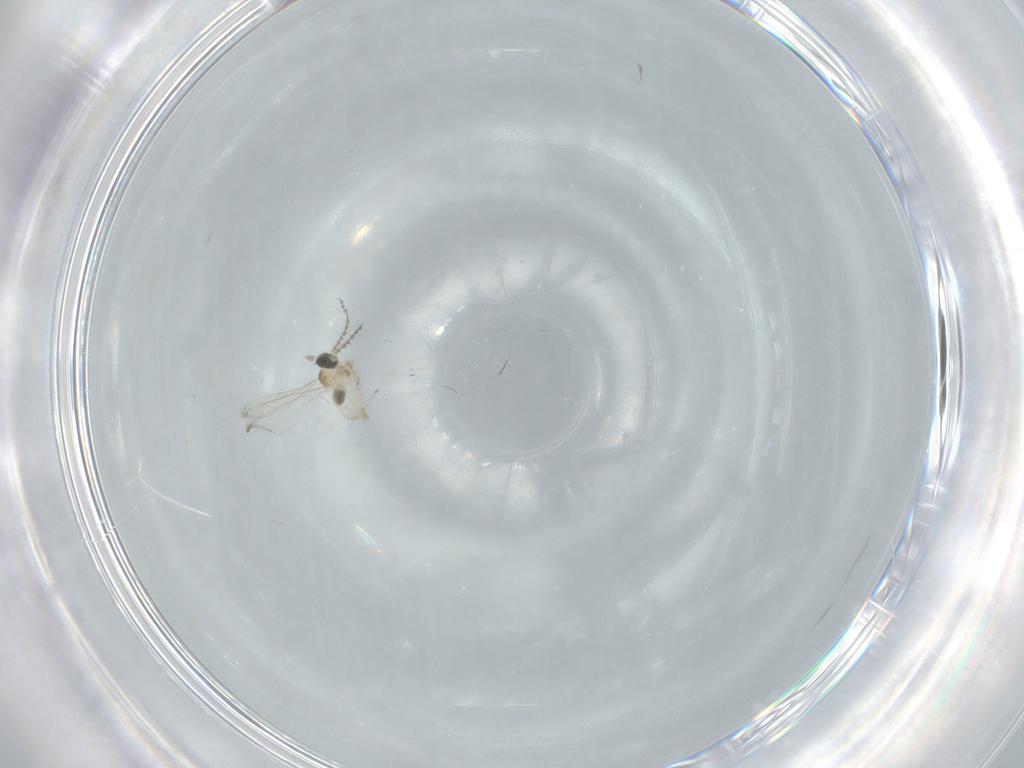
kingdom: Animalia
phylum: Arthropoda
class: Insecta
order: Diptera
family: Cecidomyiidae
